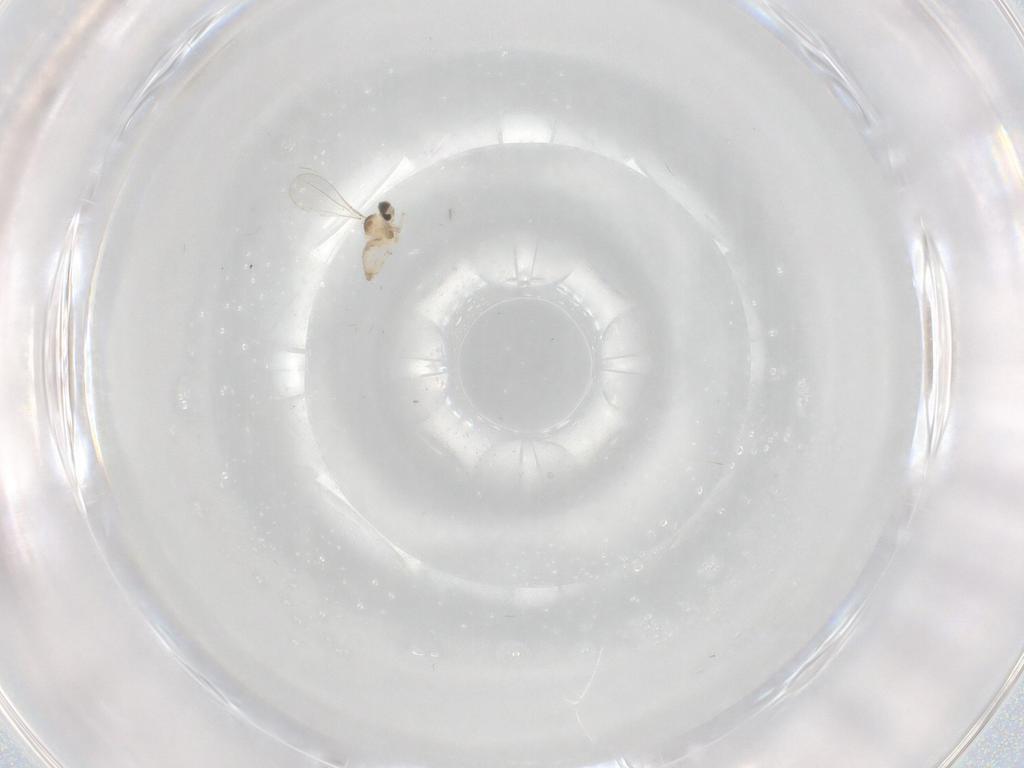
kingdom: Animalia
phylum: Arthropoda
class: Insecta
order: Diptera
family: Cecidomyiidae
